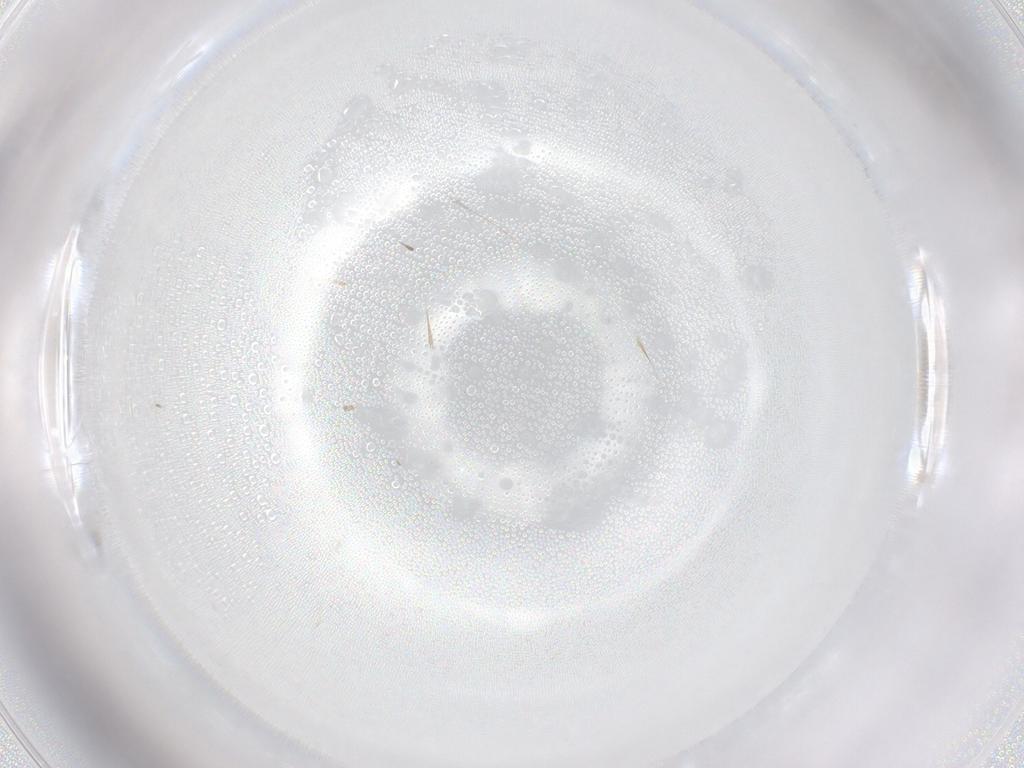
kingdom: Animalia
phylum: Arthropoda
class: Insecta
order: Diptera
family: Cecidomyiidae
